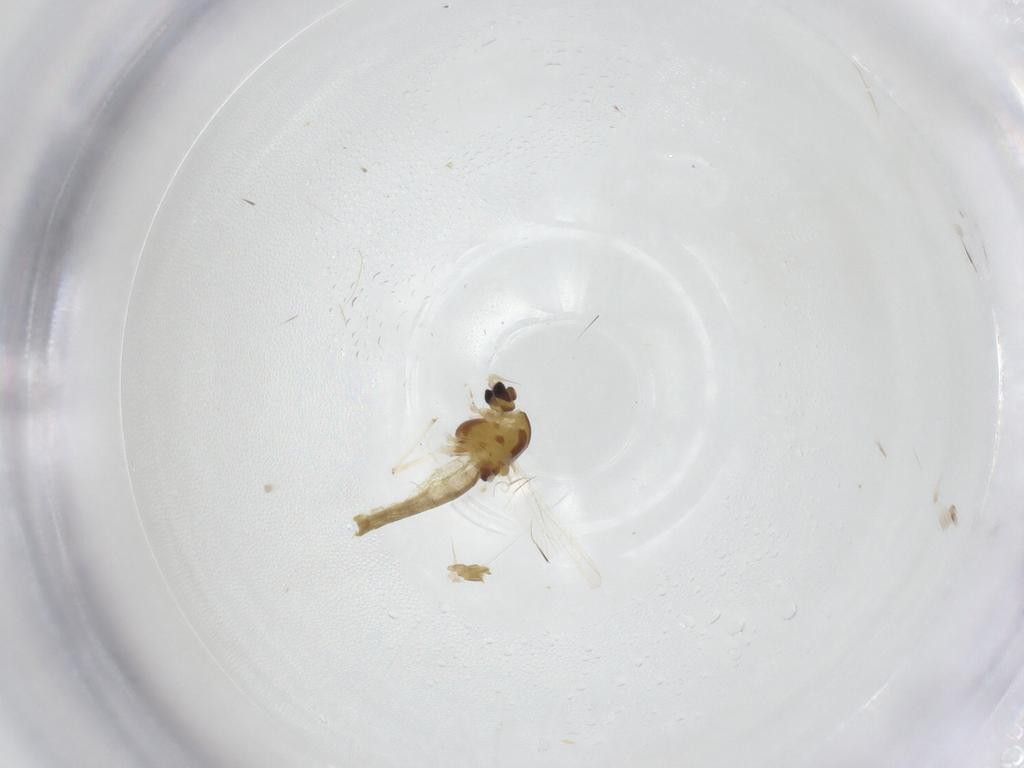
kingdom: Animalia
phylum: Arthropoda
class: Insecta
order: Diptera
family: Chironomidae
